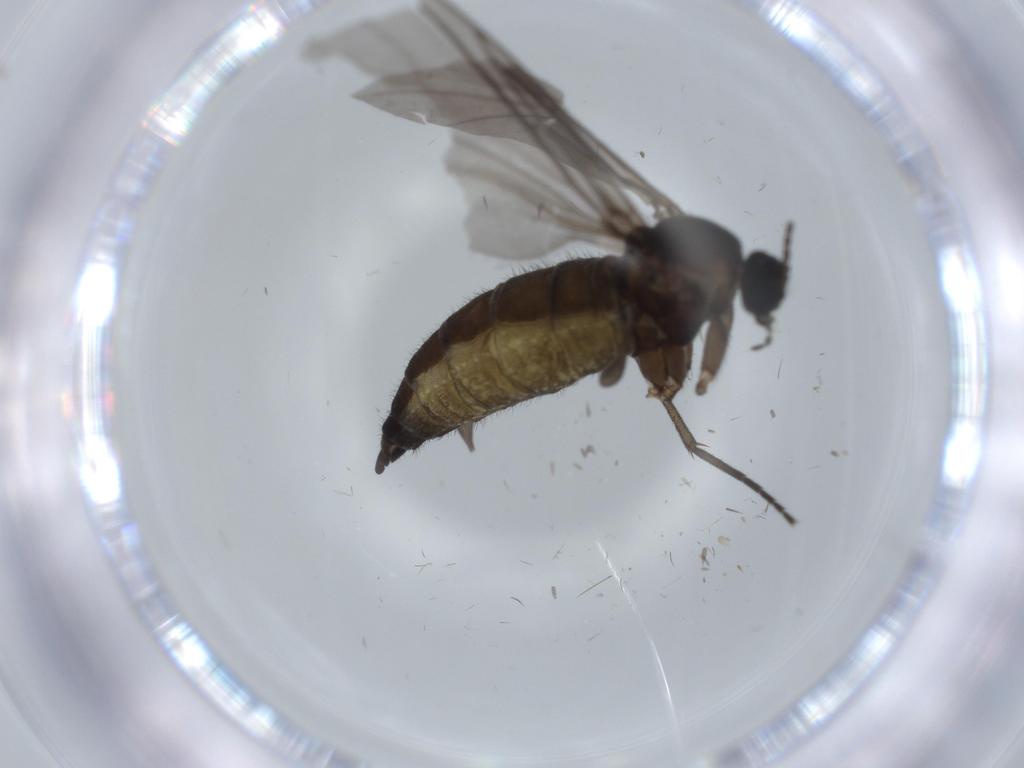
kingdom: Animalia
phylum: Arthropoda
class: Insecta
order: Diptera
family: Sciaridae
